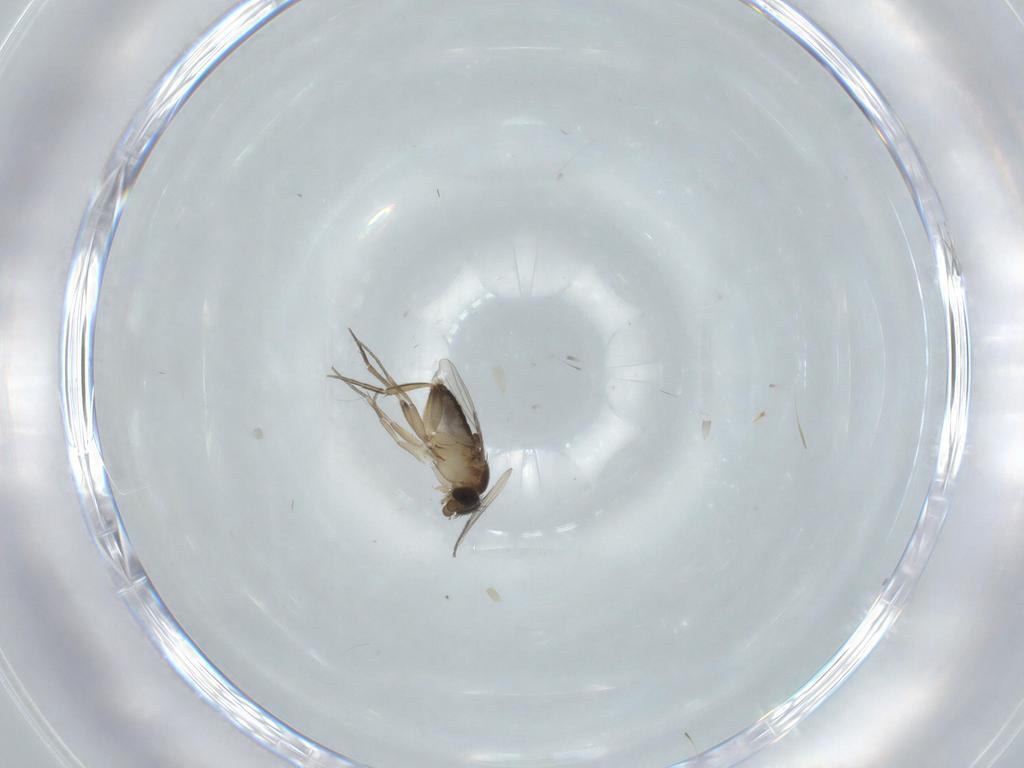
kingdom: Animalia
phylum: Arthropoda
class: Insecta
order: Diptera
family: Phoridae
